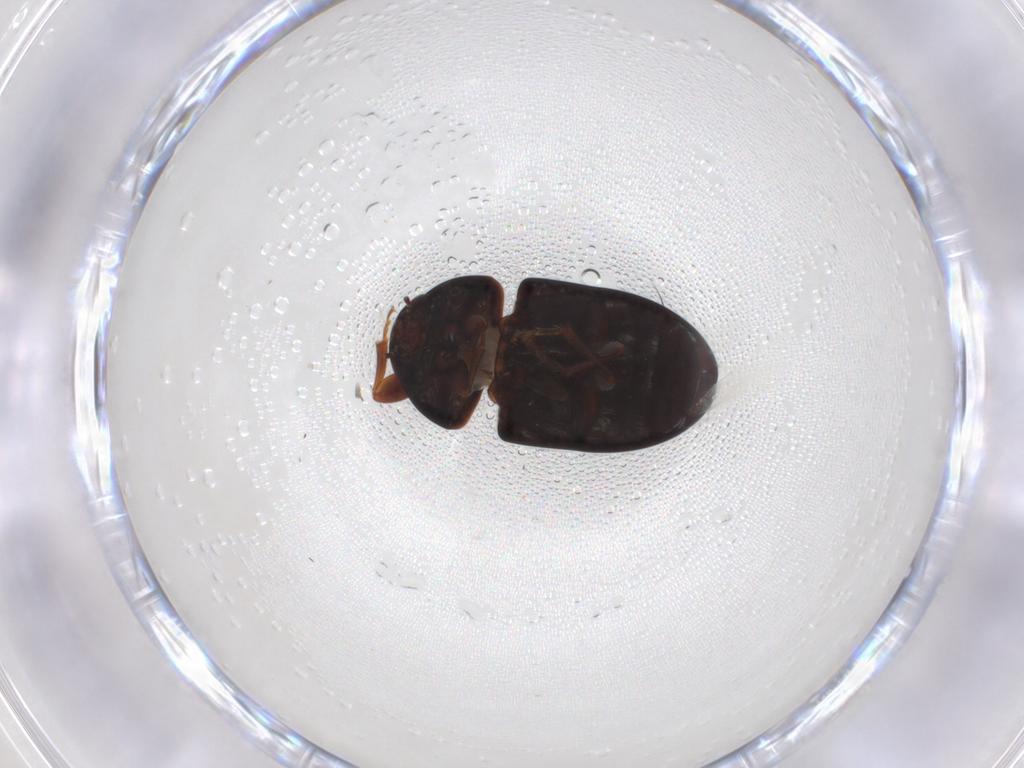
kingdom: Animalia
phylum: Arthropoda
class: Insecta
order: Coleoptera
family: Phalacridae
